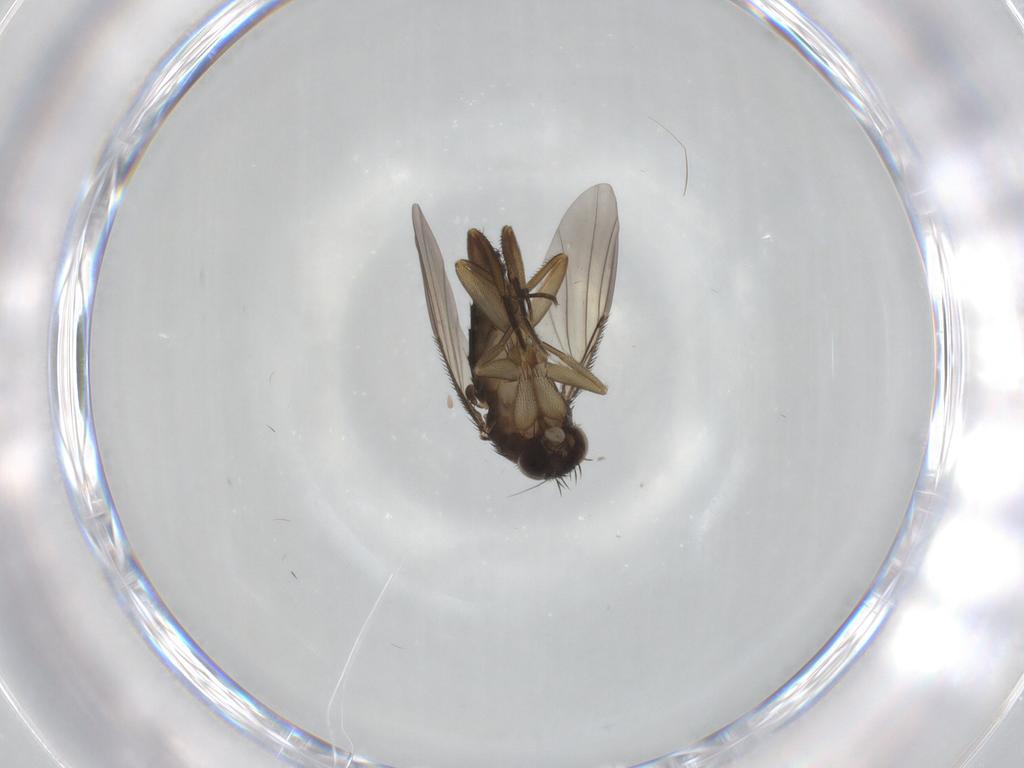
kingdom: Animalia
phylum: Arthropoda
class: Insecta
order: Diptera
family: Phoridae
